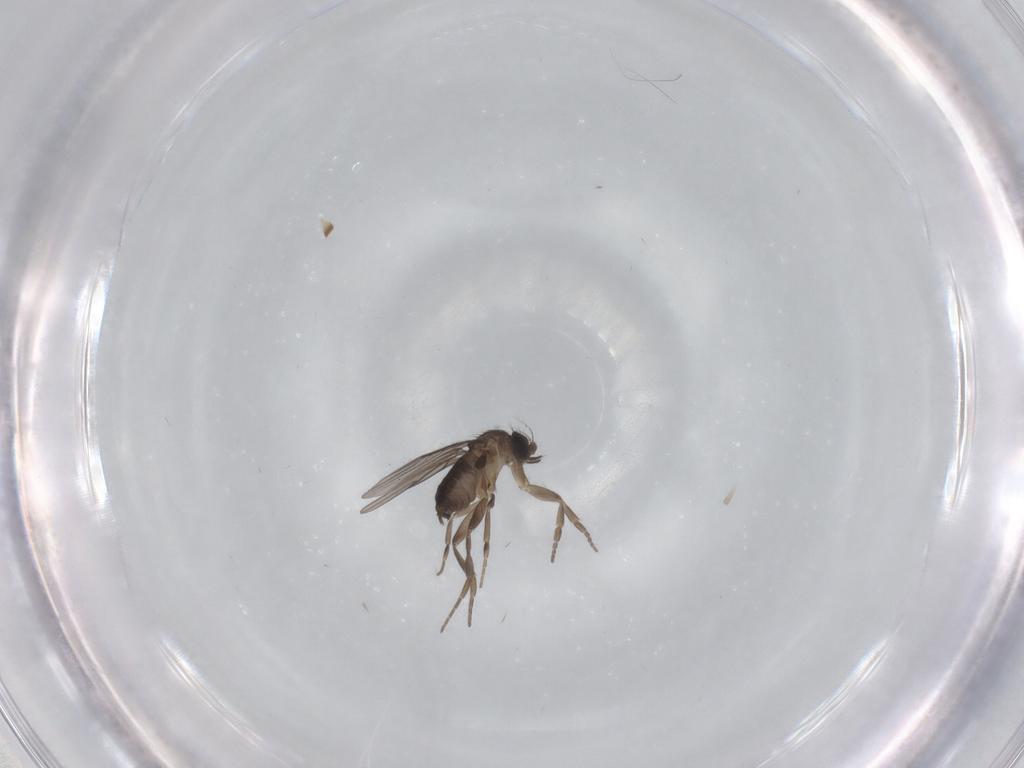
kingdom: Animalia
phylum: Arthropoda
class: Insecta
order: Diptera
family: Phoridae
